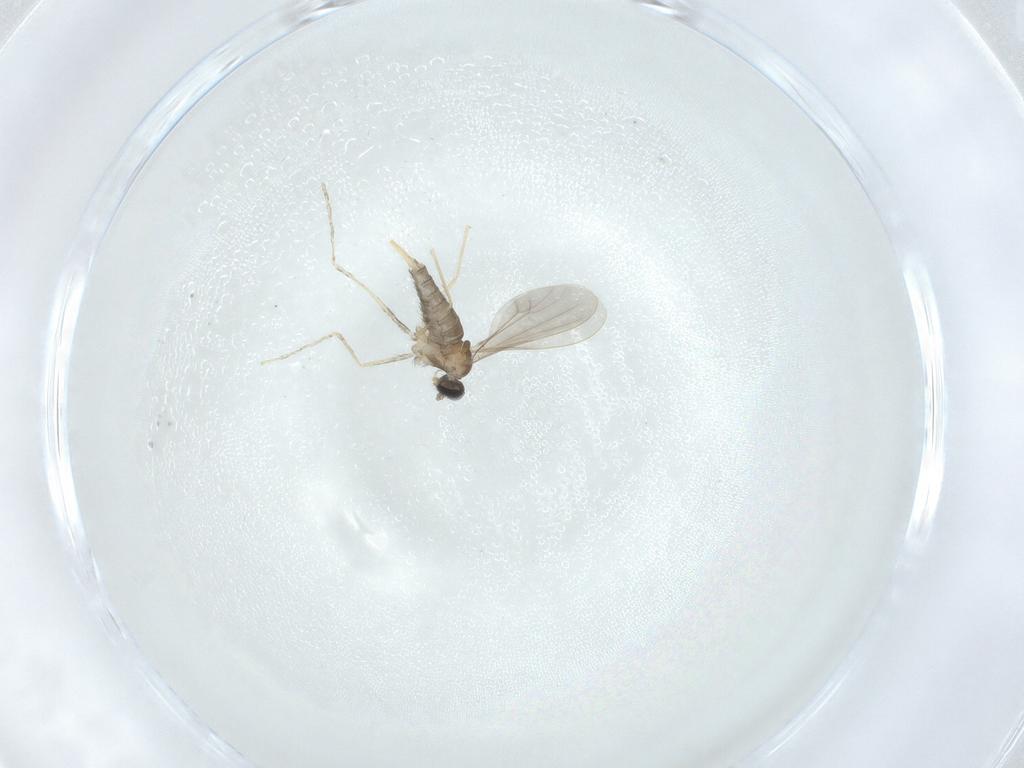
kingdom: Animalia
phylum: Arthropoda
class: Insecta
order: Diptera
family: Cecidomyiidae
